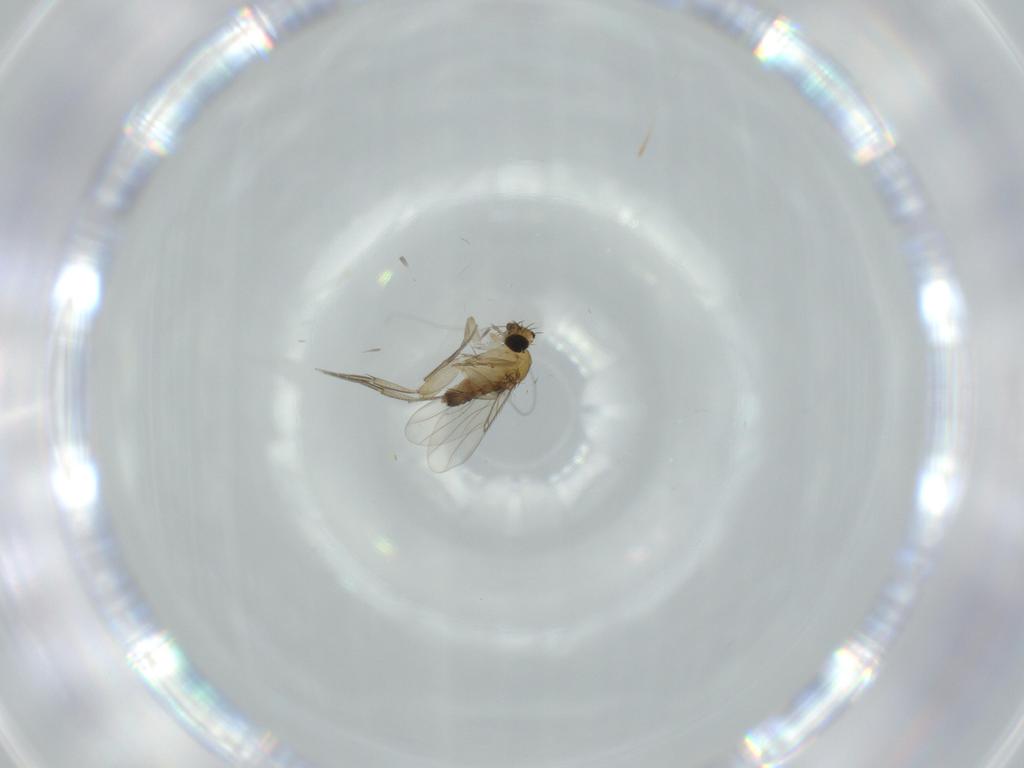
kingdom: Animalia
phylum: Arthropoda
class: Insecta
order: Diptera
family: Phoridae
